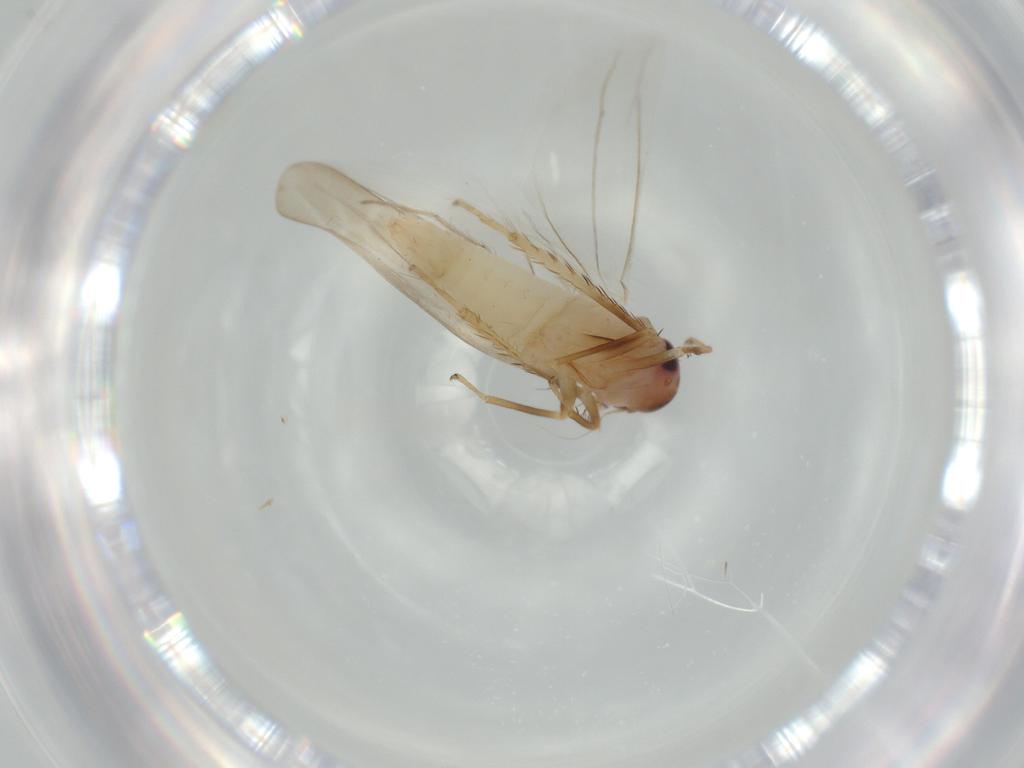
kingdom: Animalia
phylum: Arthropoda
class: Insecta
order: Hemiptera
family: Cicadellidae
